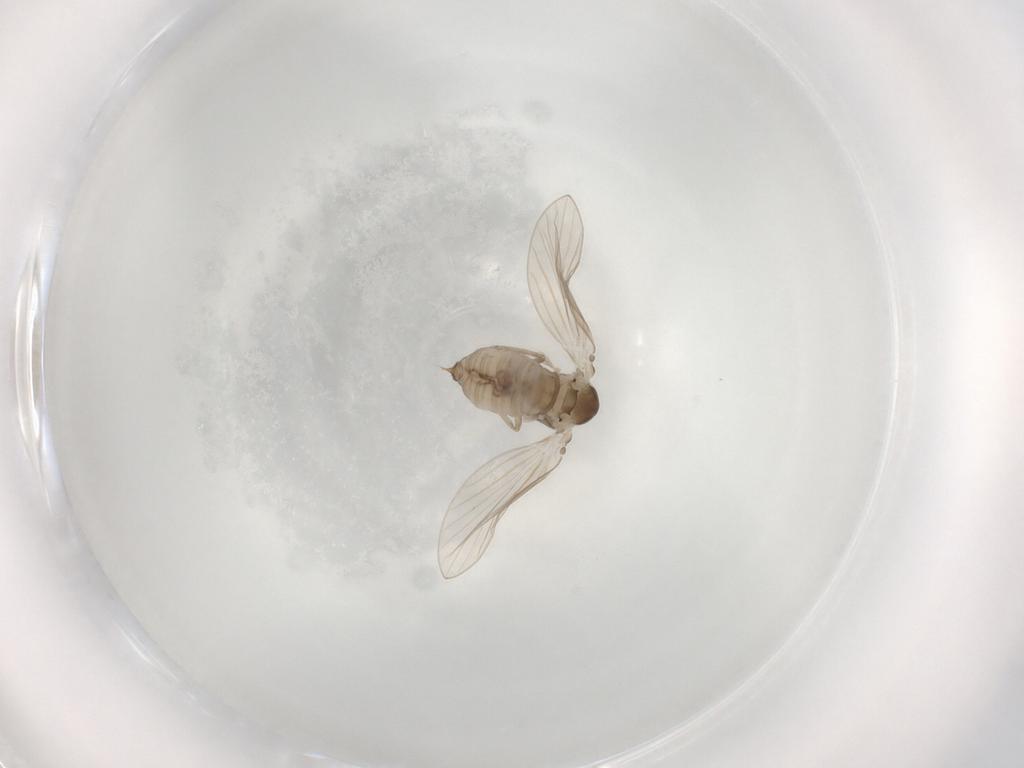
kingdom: Animalia
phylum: Arthropoda
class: Insecta
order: Diptera
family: Psychodidae
